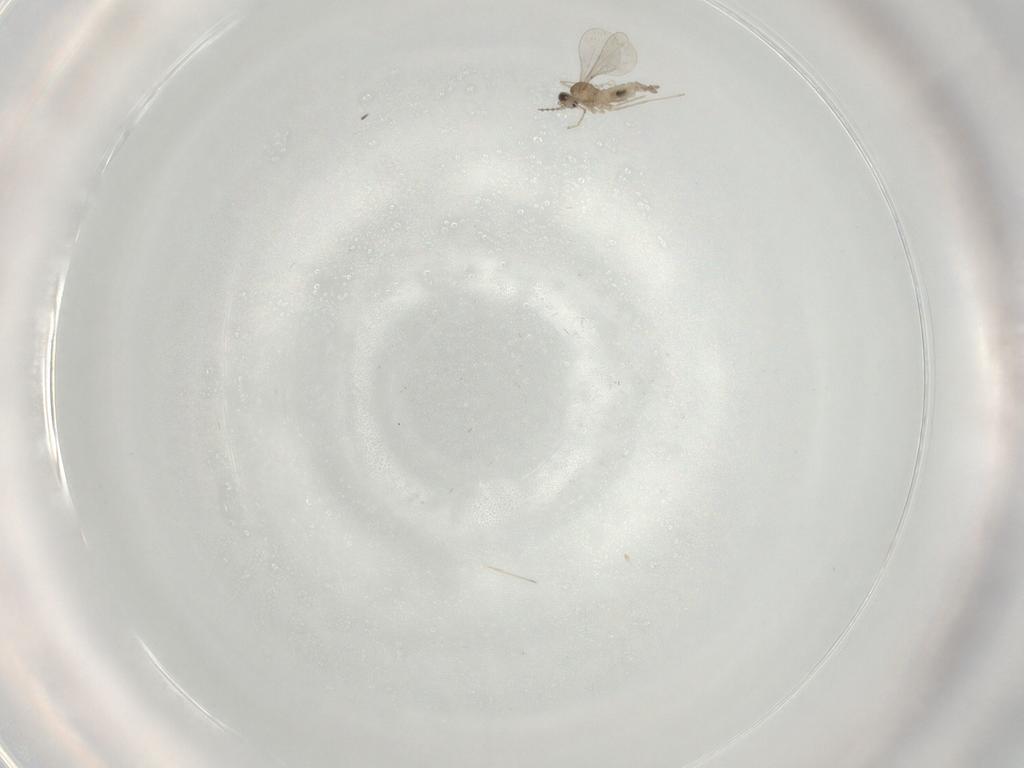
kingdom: Animalia
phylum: Arthropoda
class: Insecta
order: Diptera
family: Cecidomyiidae
